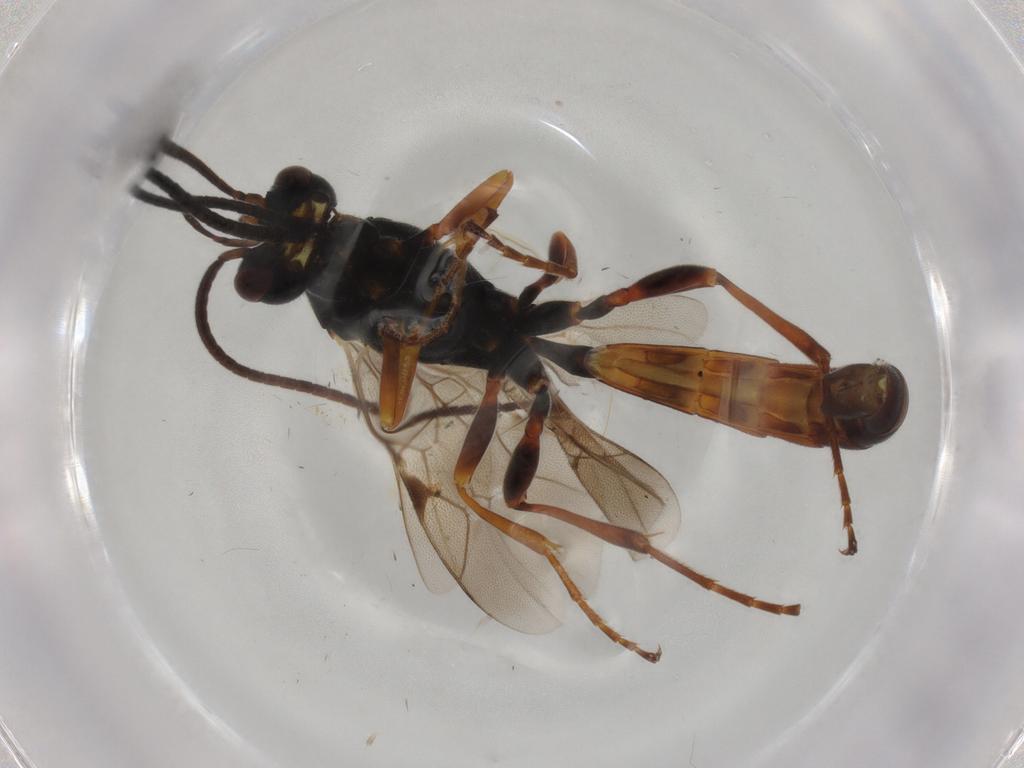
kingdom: Animalia
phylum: Arthropoda
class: Insecta
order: Hymenoptera
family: Ichneumonidae
